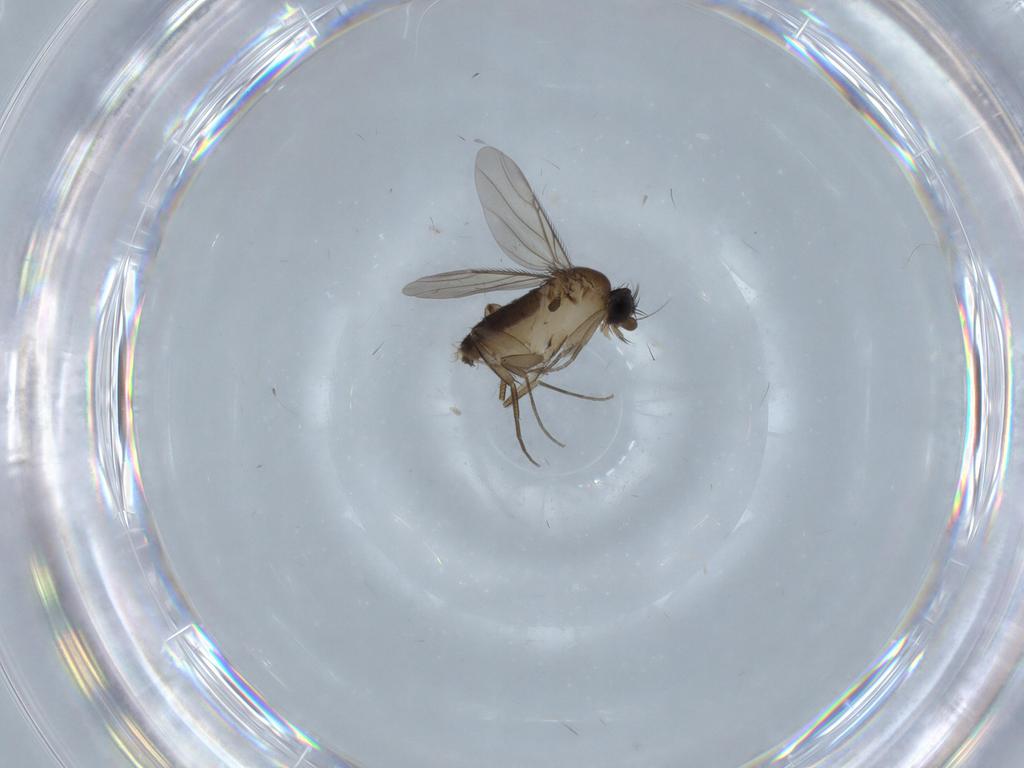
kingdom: Animalia
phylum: Arthropoda
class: Insecta
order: Diptera
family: Phoridae
